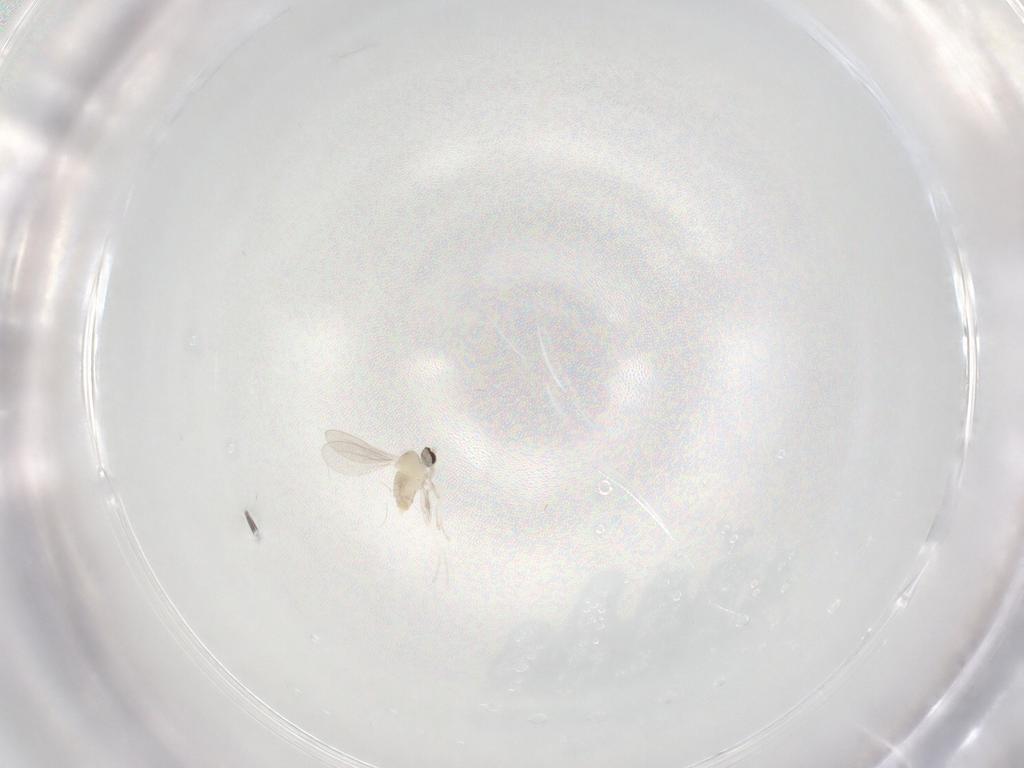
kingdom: Animalia
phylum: Arthropoda
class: Insecta
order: Diptera
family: Cecidomyiidae
